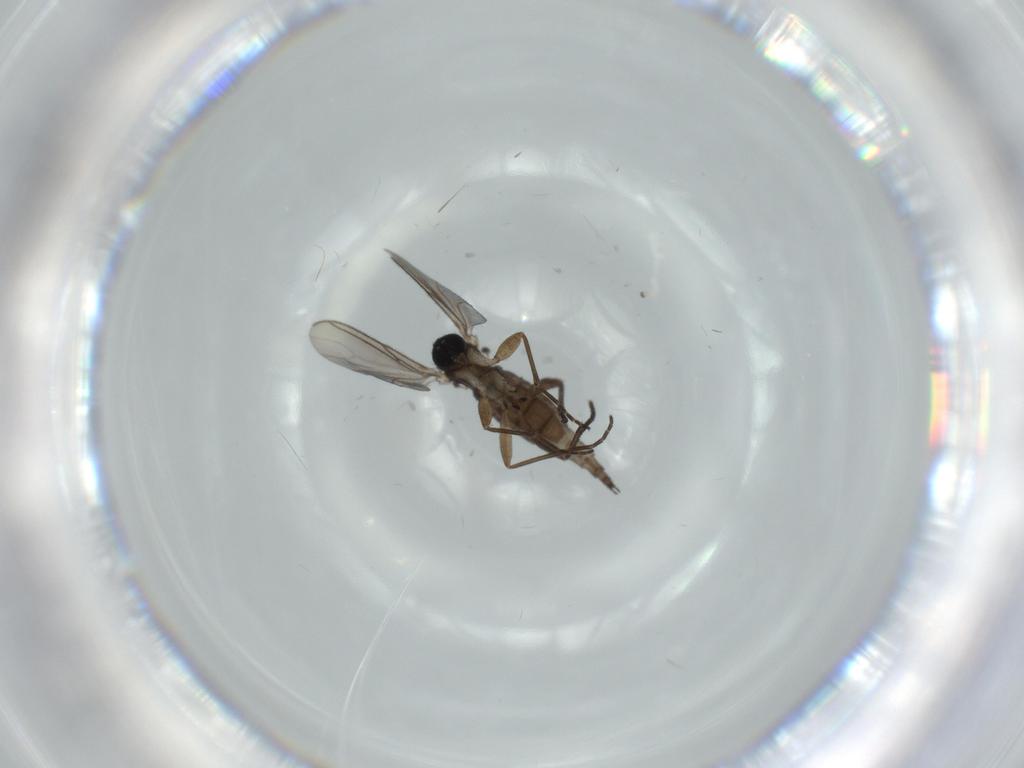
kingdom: Animalia
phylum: Arthropoda
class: Insecta
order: Diptera
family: Sciaridae
